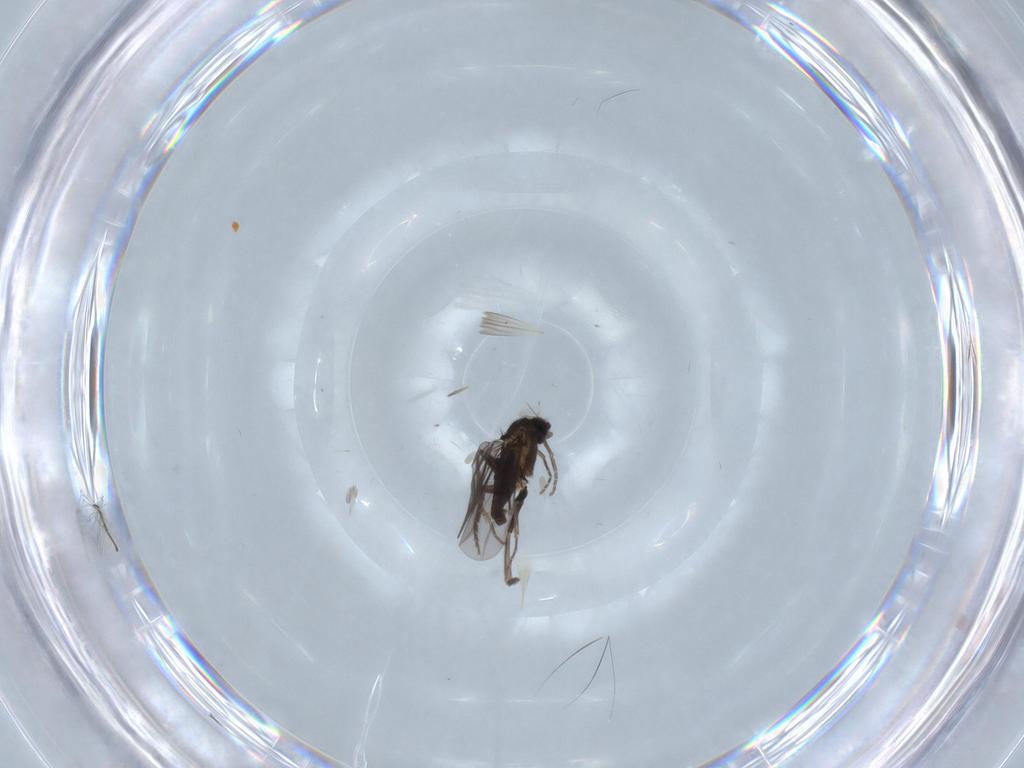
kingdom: Animalia
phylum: Arthropoda
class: Insecta
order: Diptera
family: Phoridae
